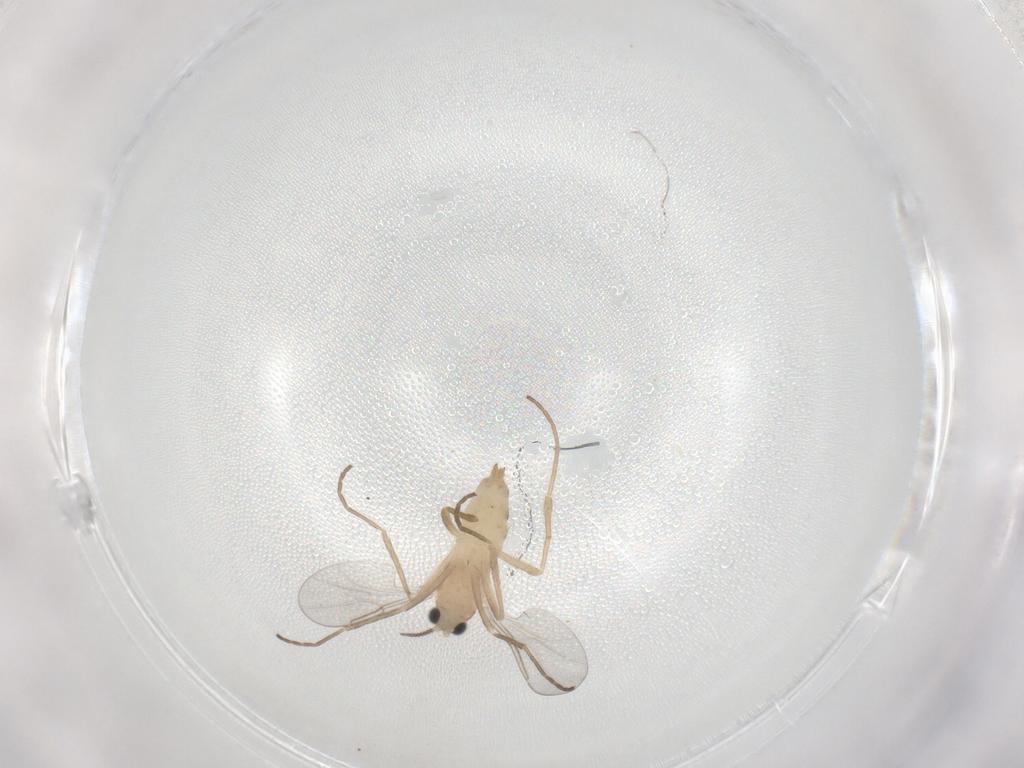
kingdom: Animalia
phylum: Arthropoda
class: Insecta
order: Diptera
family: Cecidomyiidae
